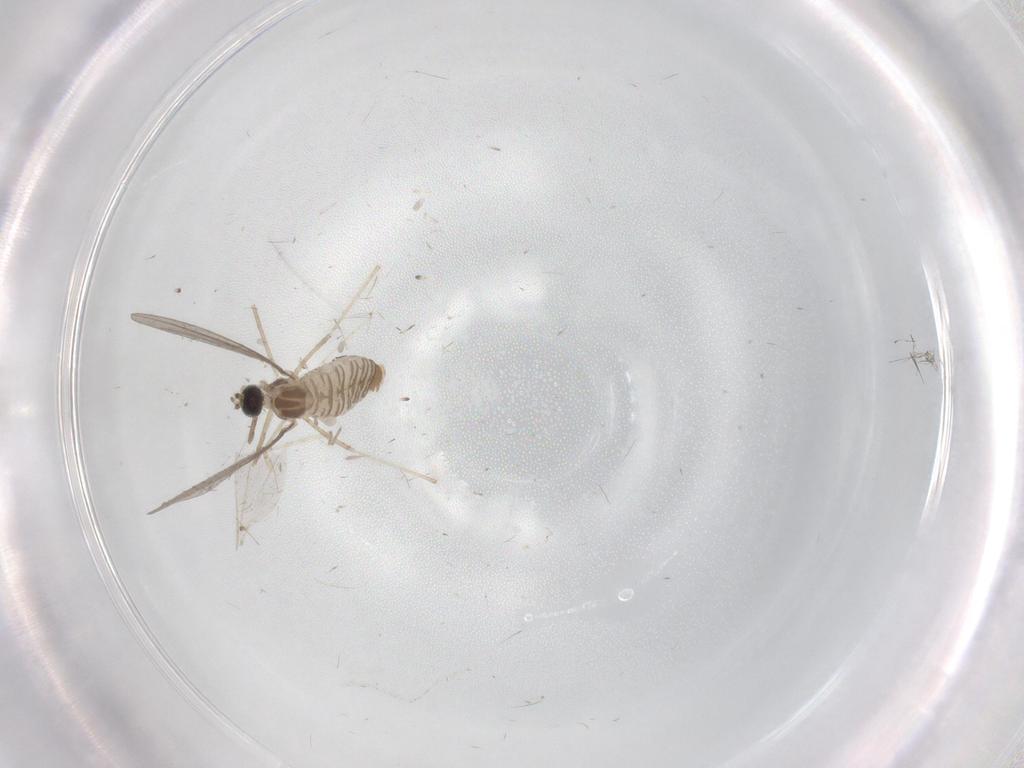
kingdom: Animalia
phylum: Arthropoda
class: Insecta
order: Diptera
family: Cecidomyiidae
